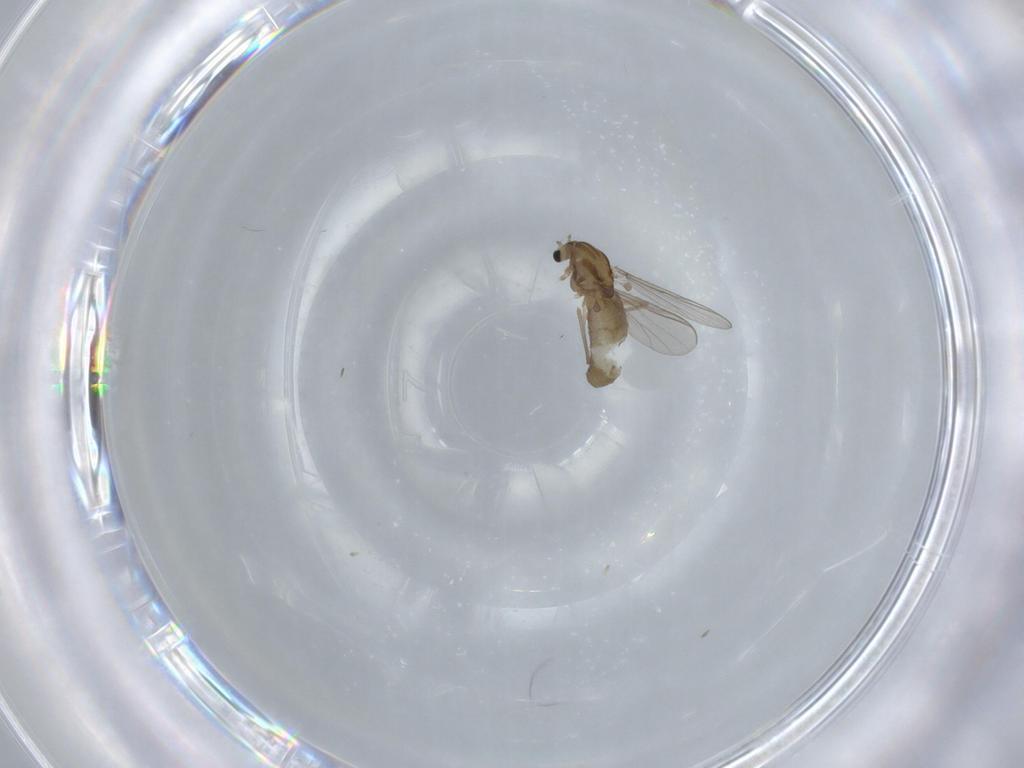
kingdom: Animalia
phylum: Arthropoda
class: Insecta
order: Diptera
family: Chironomidae
